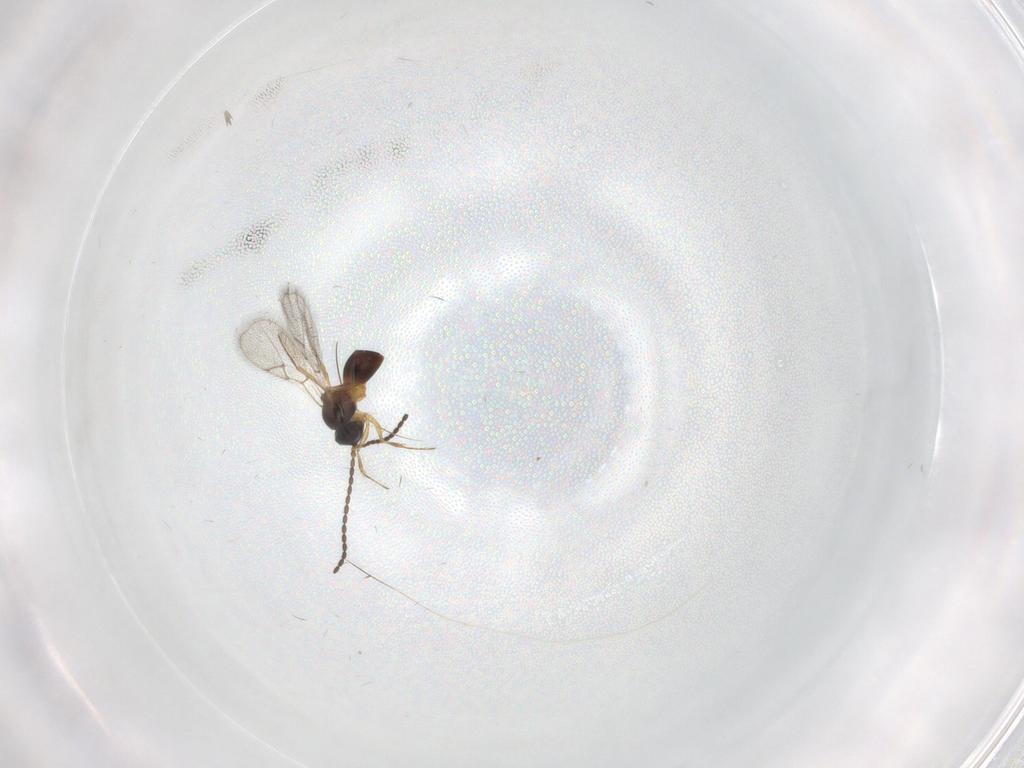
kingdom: Animalia
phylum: Arthropoda
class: Insecta
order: Hymenoptera
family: Figitidae
